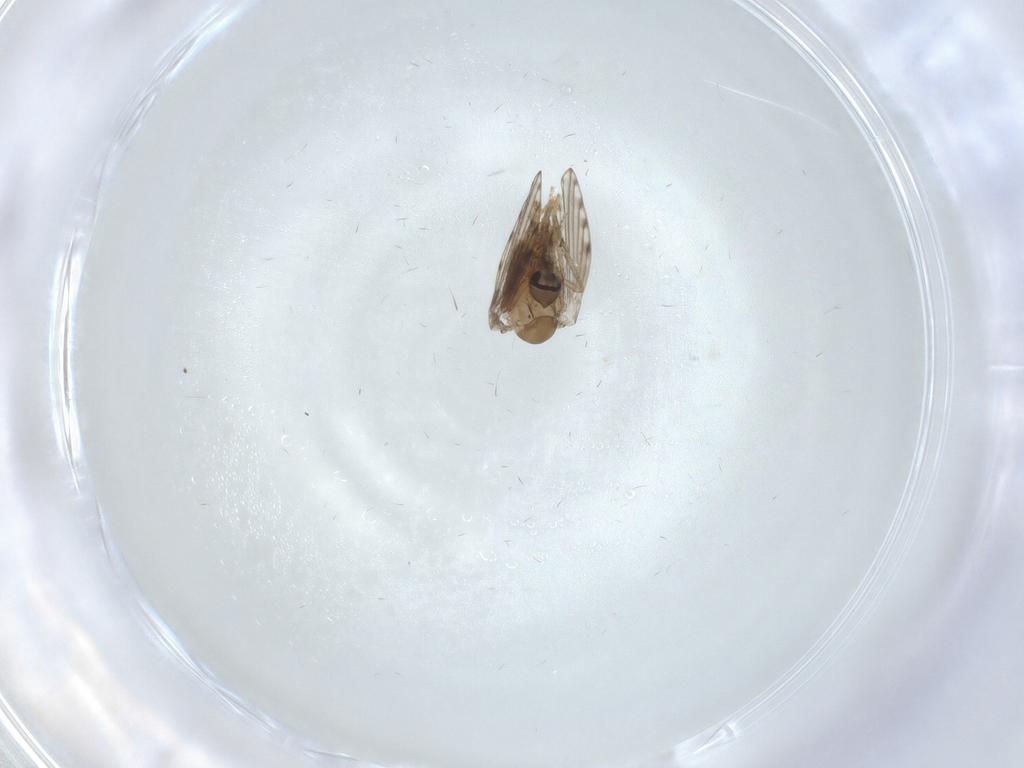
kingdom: Animalia
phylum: Arthropoda
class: Insecta
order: Diptera
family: Psychodidae
